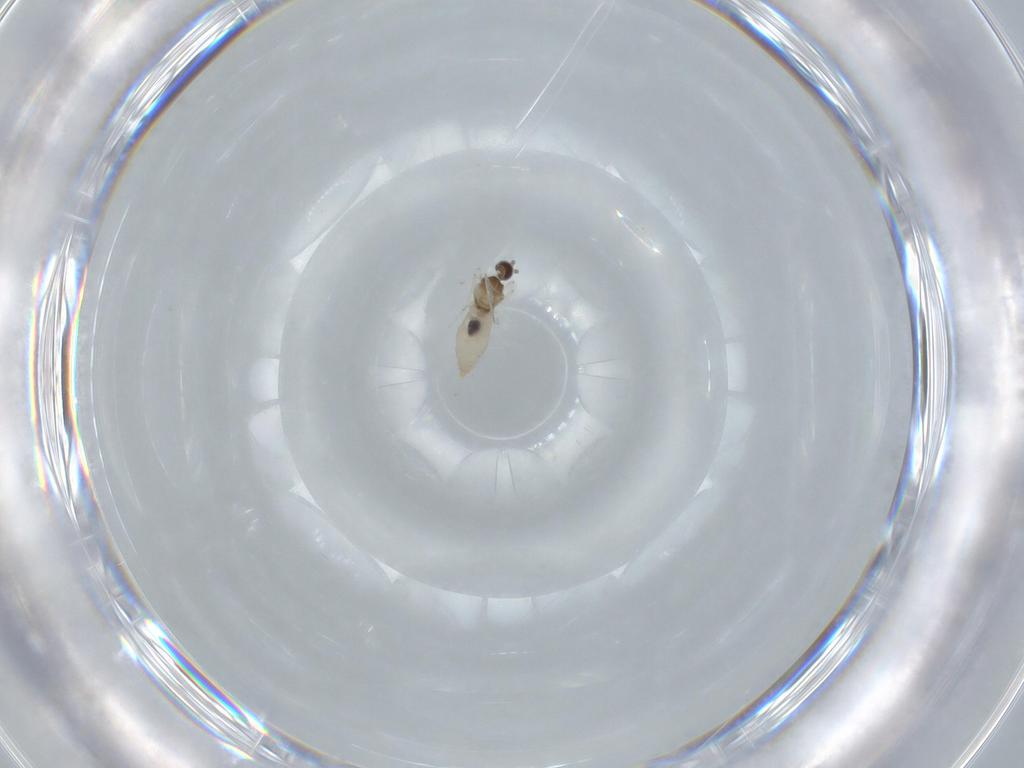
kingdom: Animalia
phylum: Arthropoda
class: Insecta
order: Diptera
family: Cecidomyiidae
